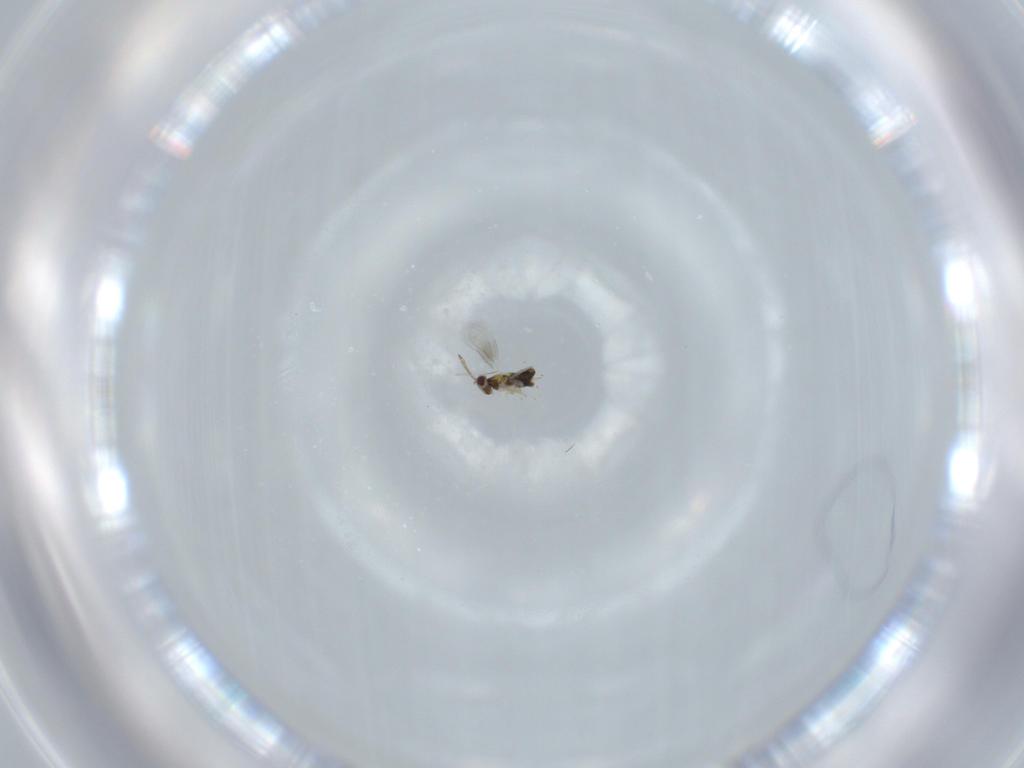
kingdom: Animalia
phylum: Arthropoda
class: Insecta
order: Hymenoptera
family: Aphelinidae
